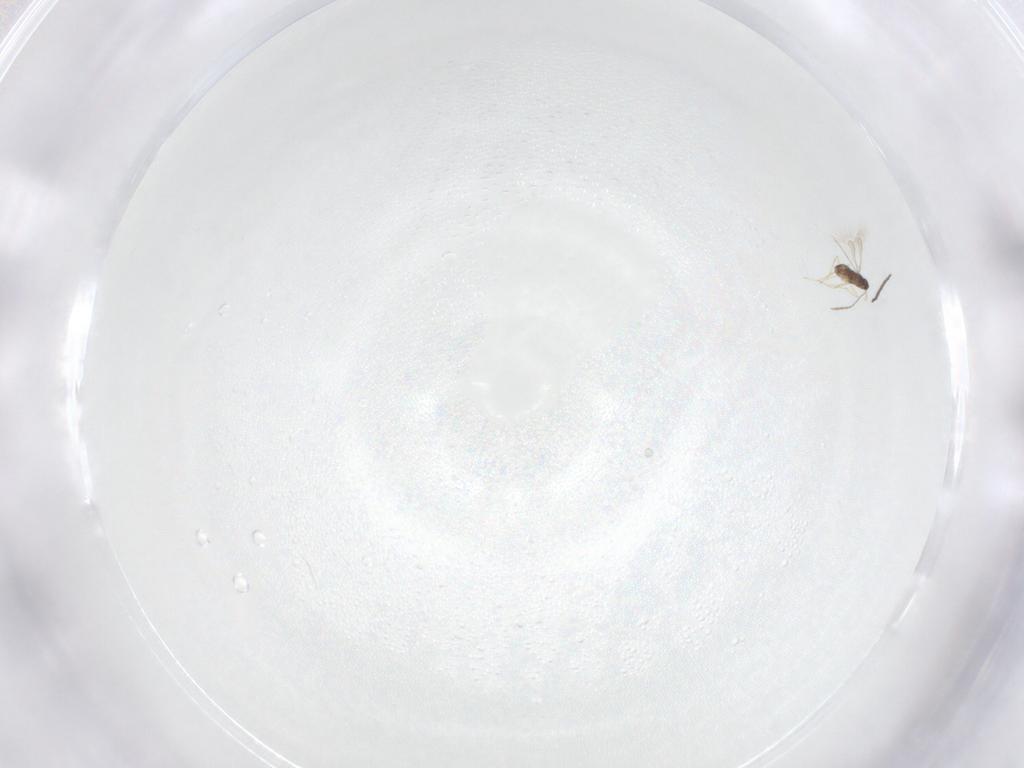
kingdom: Animalia
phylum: Arthropoda
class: Insecta
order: Hymenoptera
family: Mymaridae
